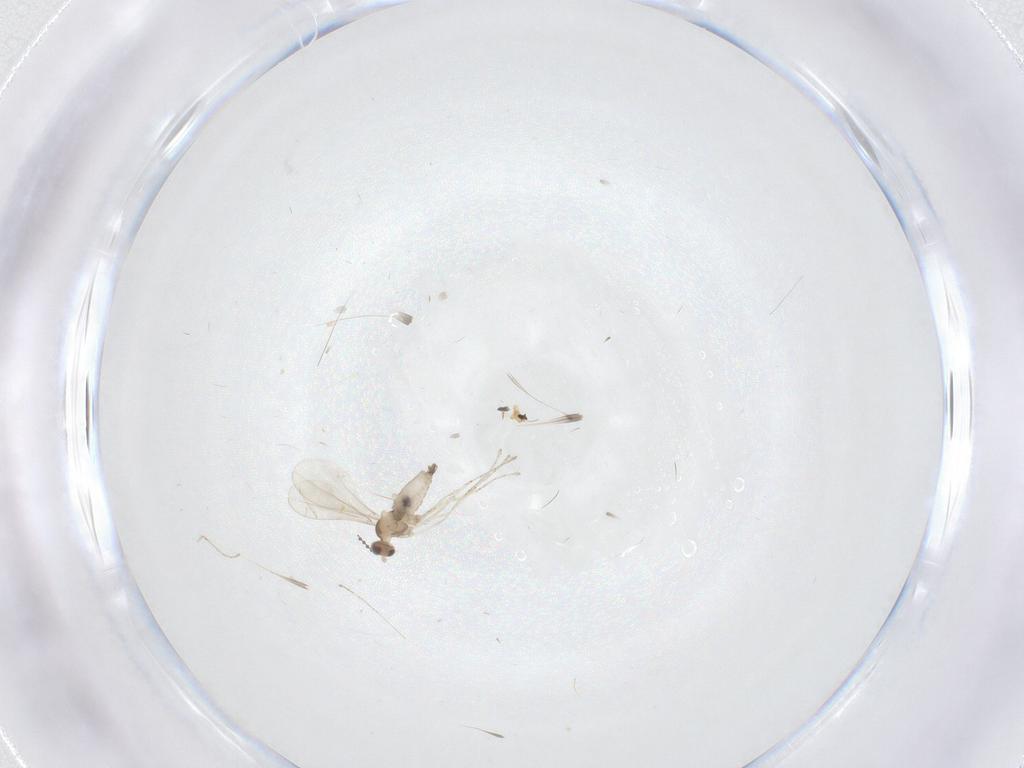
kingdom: Animalia
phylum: Arthropoda
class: Insecta
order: Diptera
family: Cecidomyiidae
